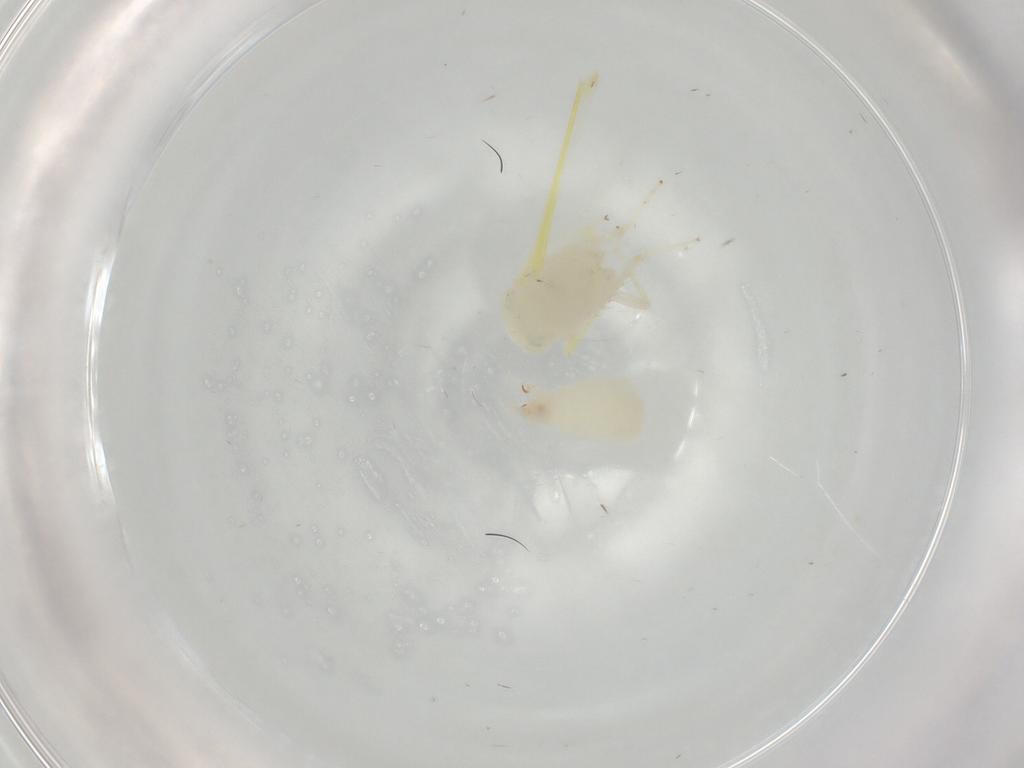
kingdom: Animalia
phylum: Arthropoda
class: Insecta
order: Hemiptera
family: Cicadellidae
